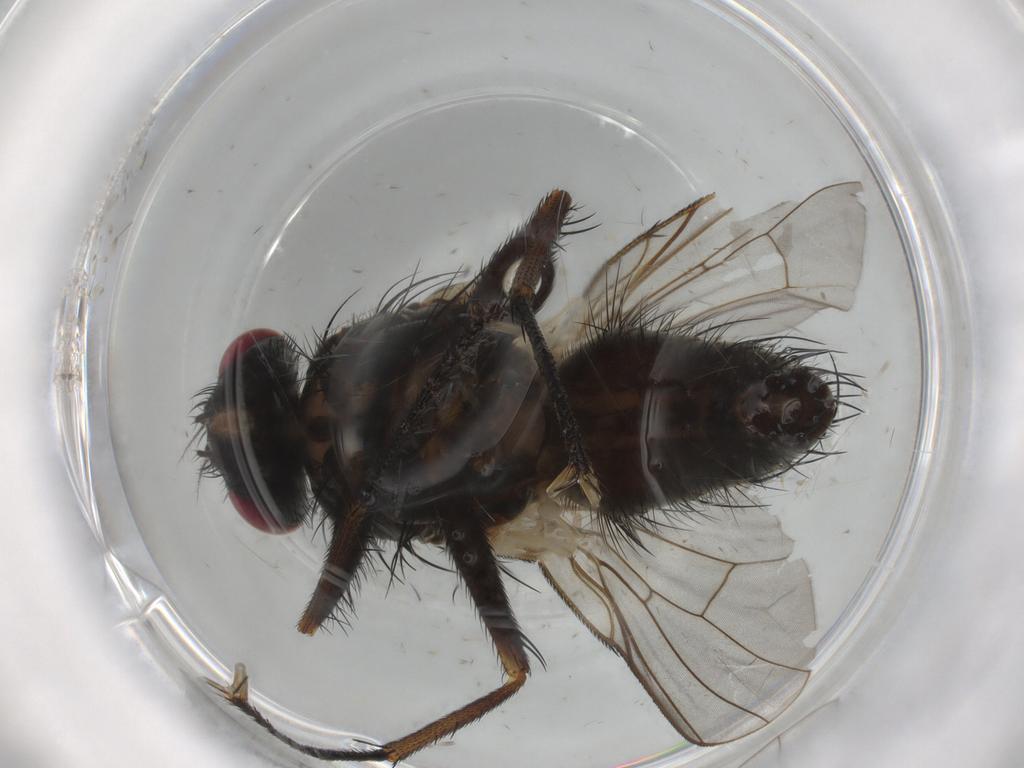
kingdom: Animalia
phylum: Arthropoda
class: Insecta
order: Diptera
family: Muscidae
